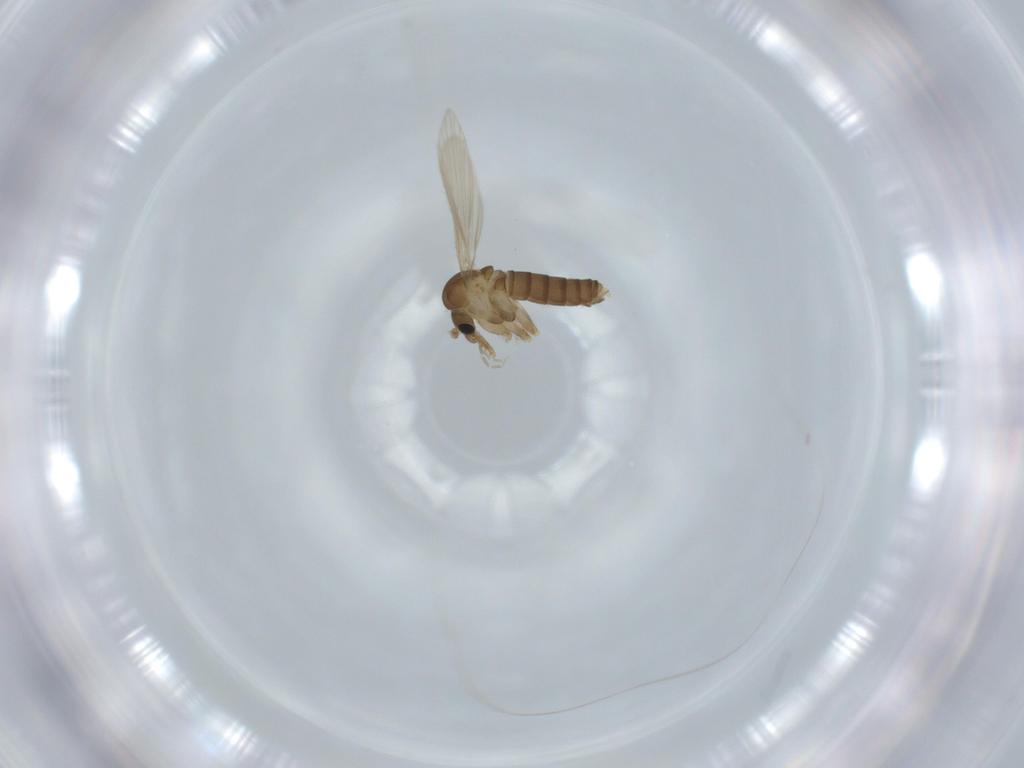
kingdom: Animalia
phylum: Arthropoda
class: Insecta
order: Diptera
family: Psychodidae
